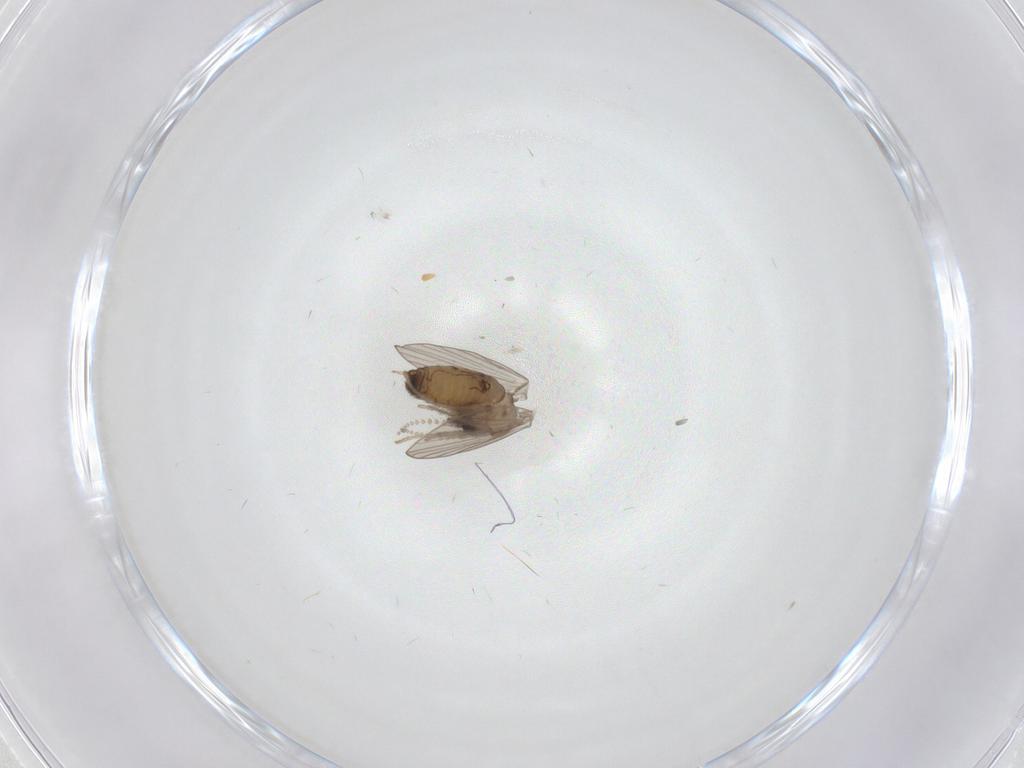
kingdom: Animalia
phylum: Arthropoda
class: Insecta
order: Diptera
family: Psychodidae
